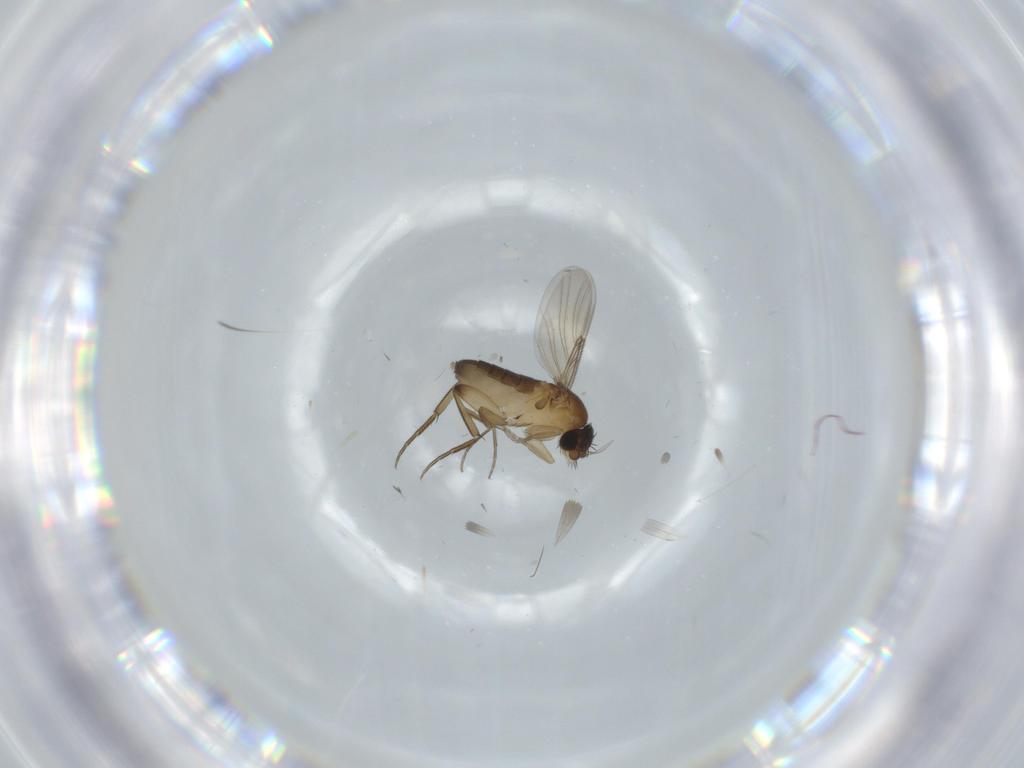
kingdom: Animalia
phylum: Arthropoda
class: Insecta
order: Diptera
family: Phoridae
